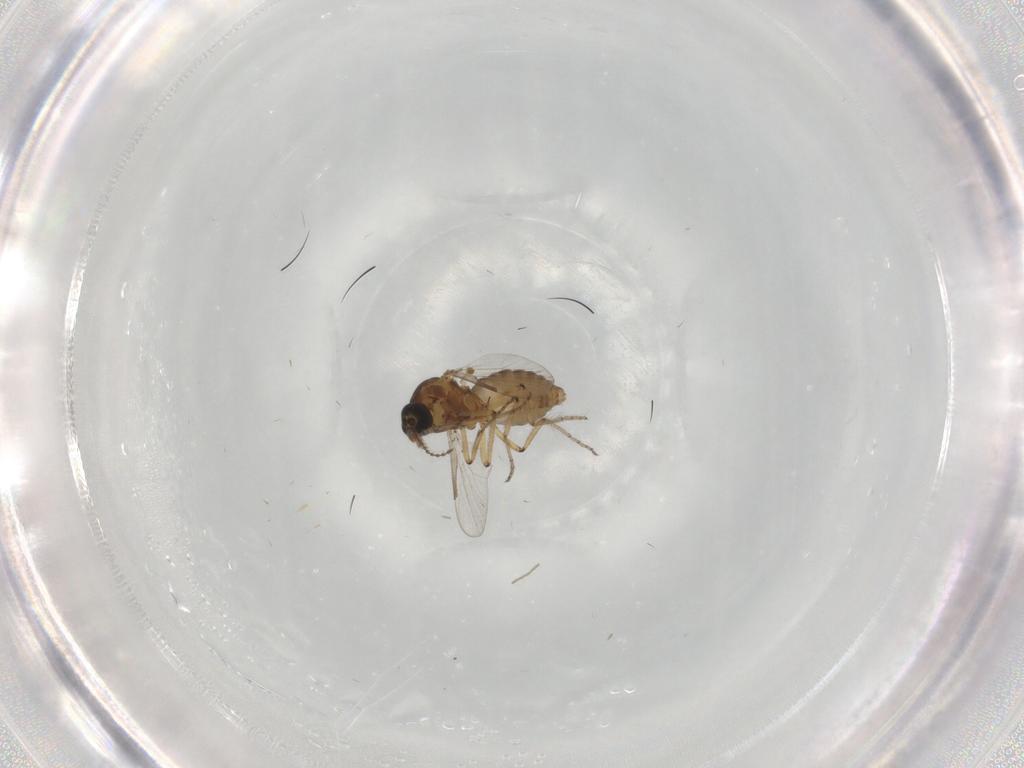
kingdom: Animalia
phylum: Arthropoda
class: Insecta
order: Diptera
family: Ceratopogonidae
